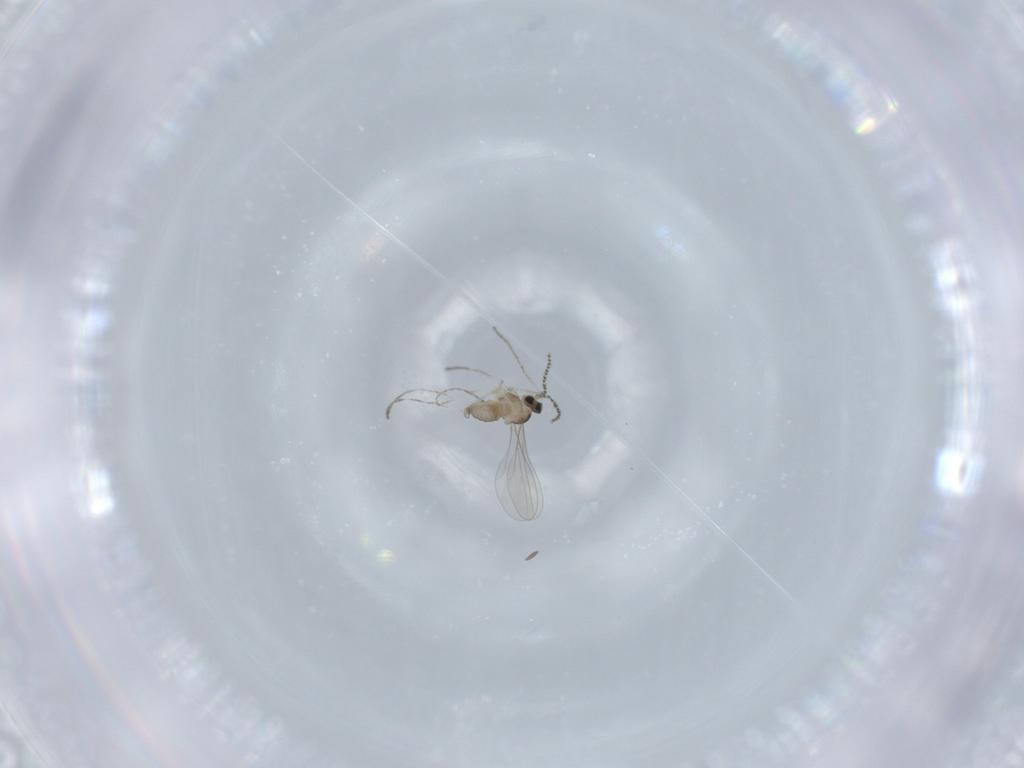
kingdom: Animalia
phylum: Arthropoda
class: Insecta
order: Diptera
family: Cecidomyiidae
